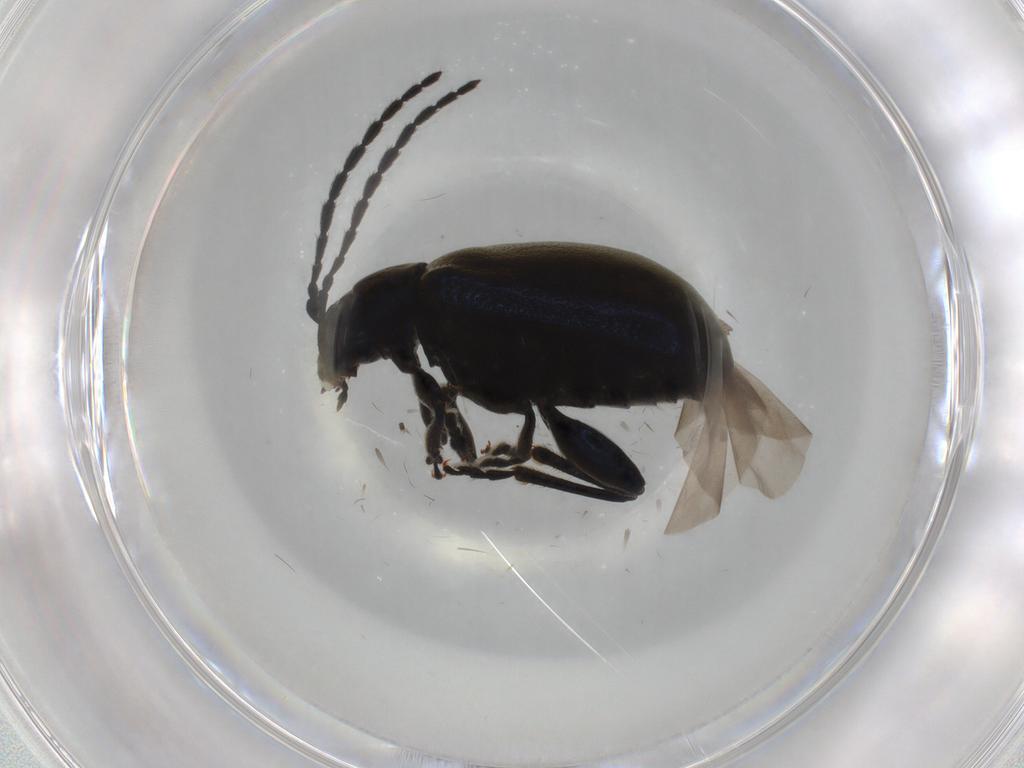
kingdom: Animalia
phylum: Arthropoda
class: Insecta
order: Coleoptera
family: Chrysomelidae
